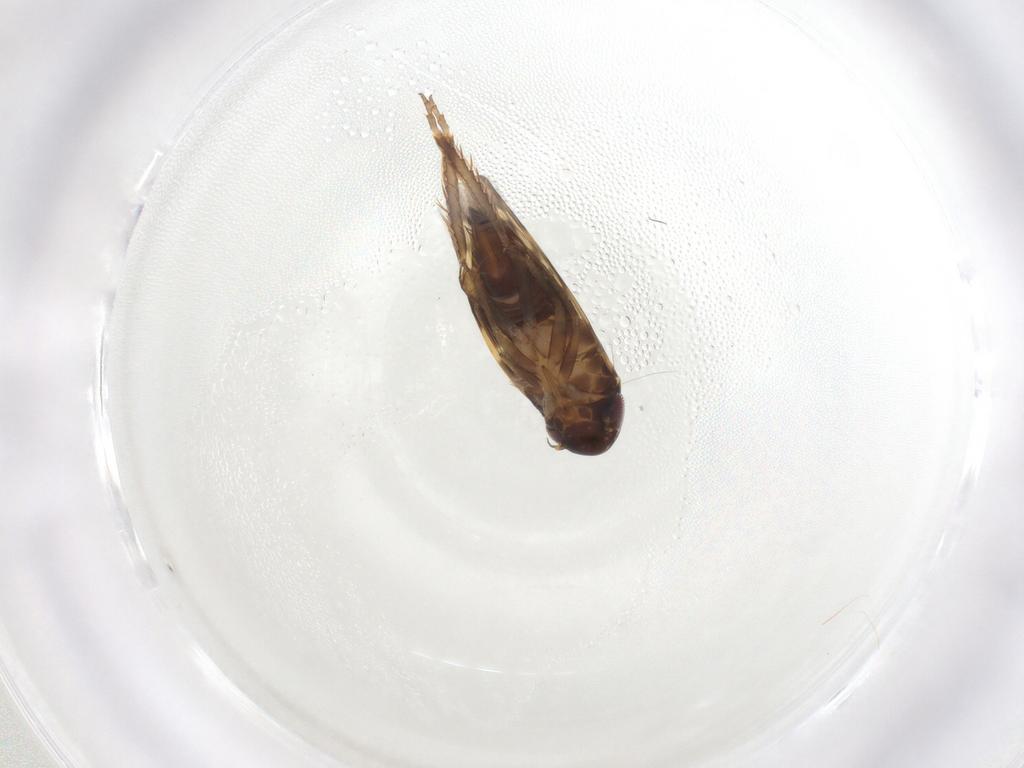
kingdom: Animalia
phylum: Arthropoda
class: Insecta
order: Hemiptera
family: Cicadellidae
